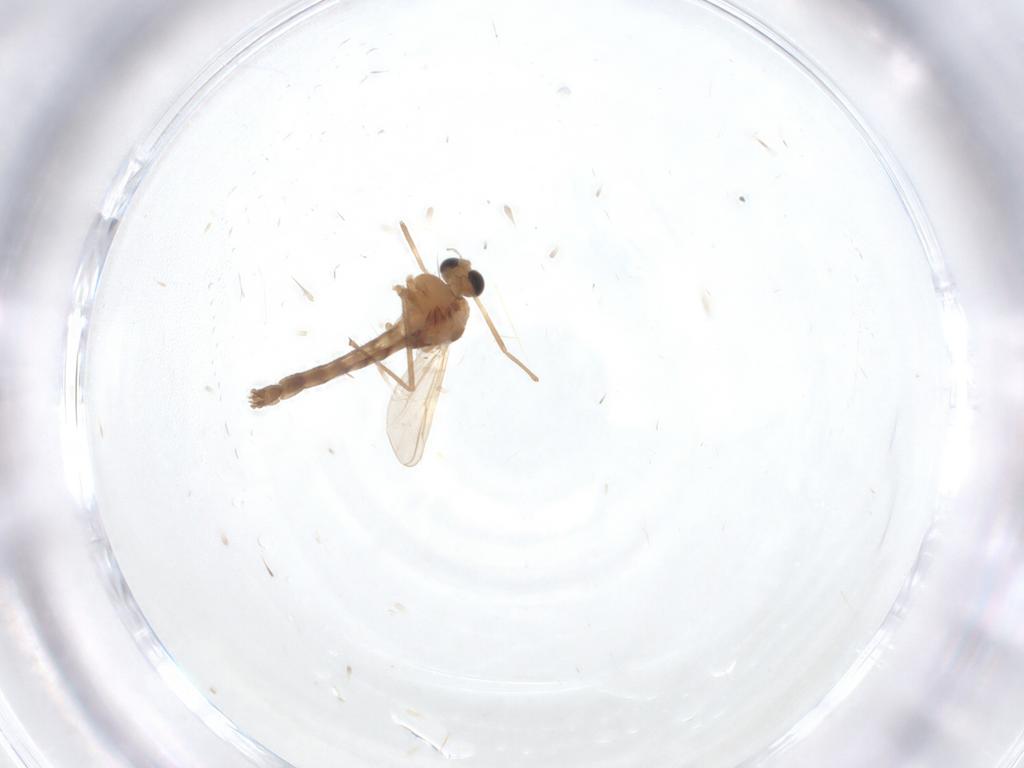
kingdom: Animalia
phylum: Arthropoda
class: Insecta
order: Diptera
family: Chironomidae
